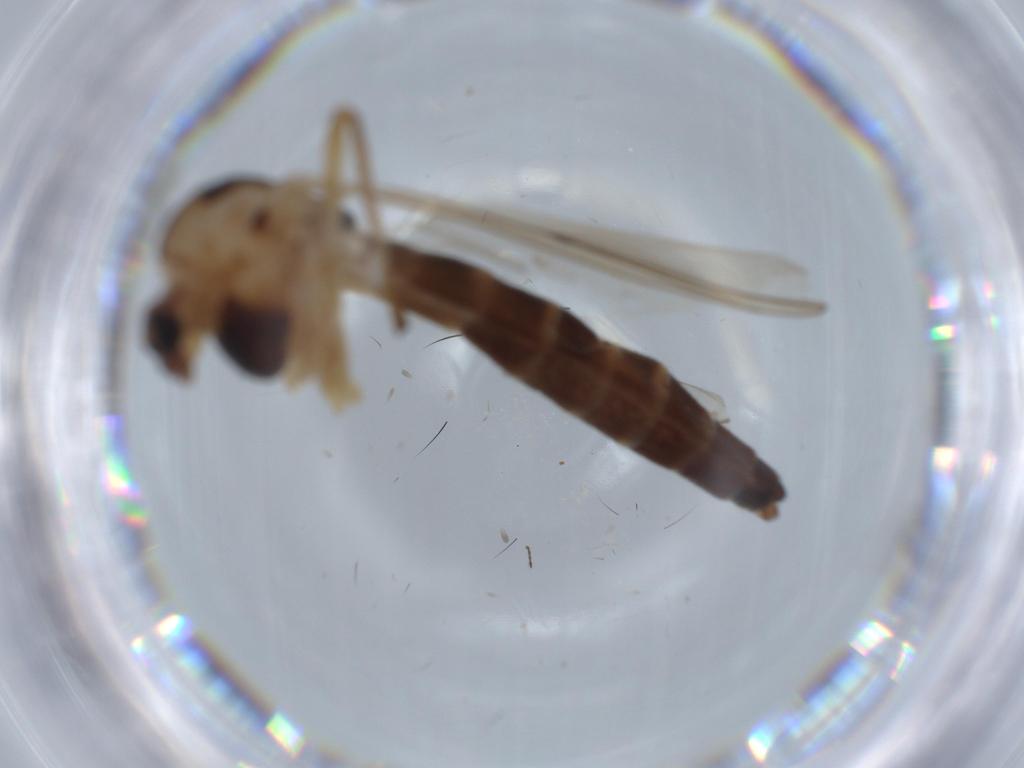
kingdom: Animalia
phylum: Arthropoda
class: Insecta
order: Diptera
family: Chironomidae
